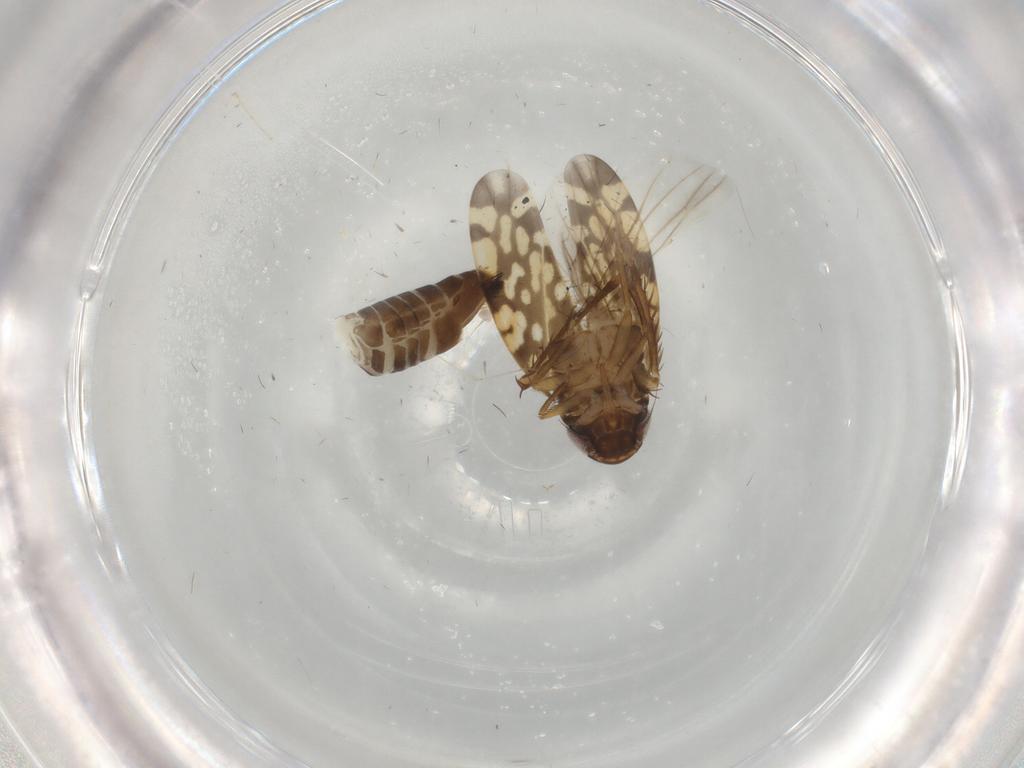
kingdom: Animalia
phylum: Arthropoda
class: Insecta
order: Hemiptera
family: Cicadellidae
